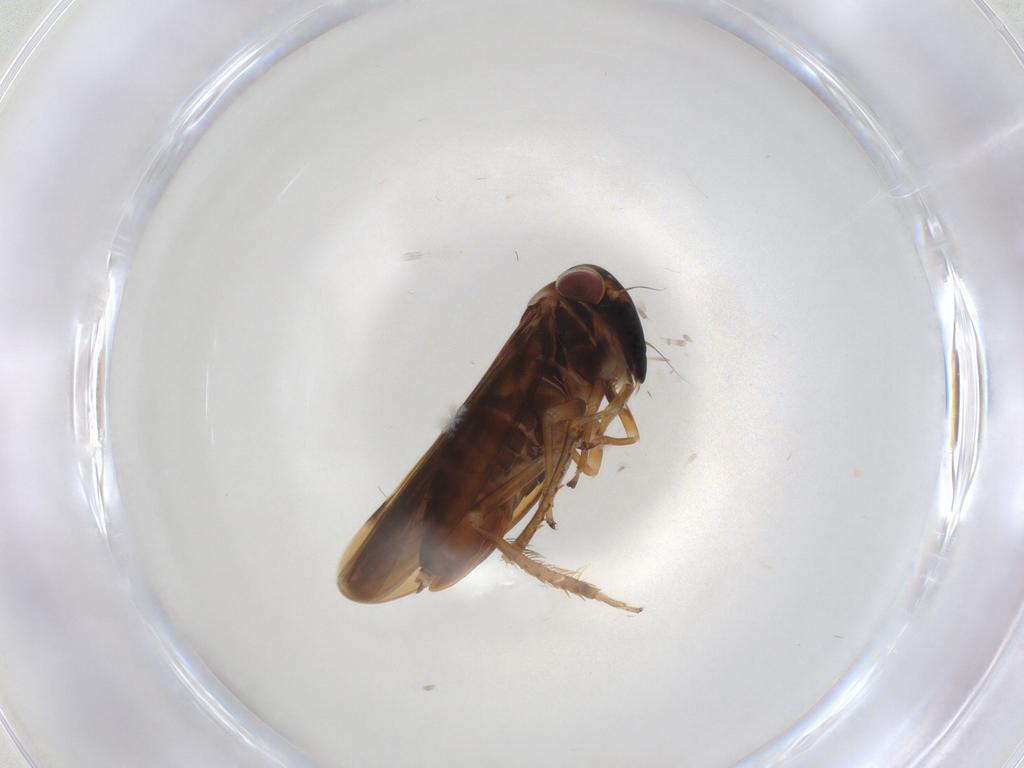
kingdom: Animalia
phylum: Arthropoda
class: Insecta
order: Hemiptera
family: Cicadellidae
